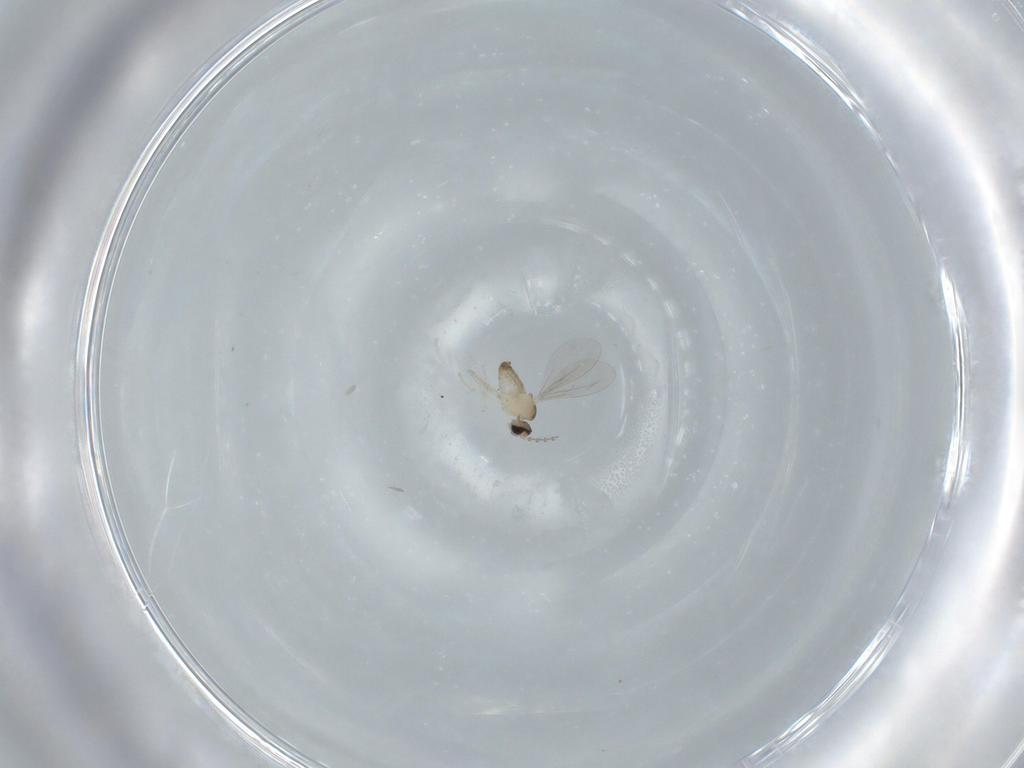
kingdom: Animalia
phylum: Arthropoda
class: Insecta
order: Diptera
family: Cecidomyiidae
